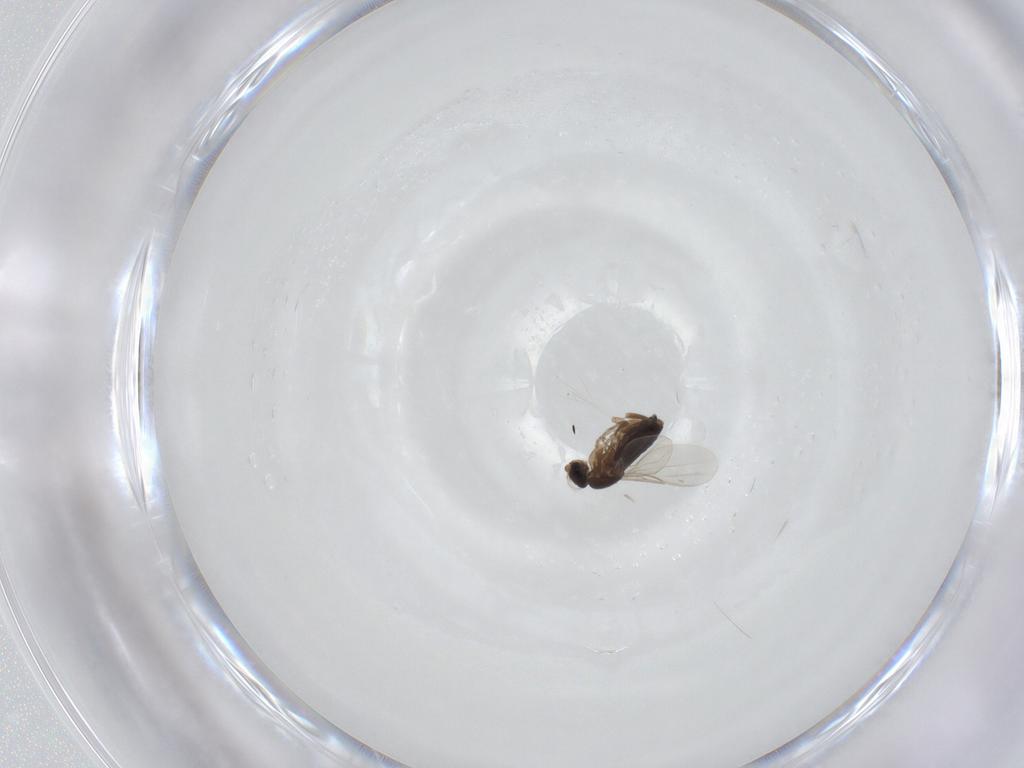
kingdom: Animalia
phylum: Arthropoda
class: Insecta
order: Diptera
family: Phoridae
